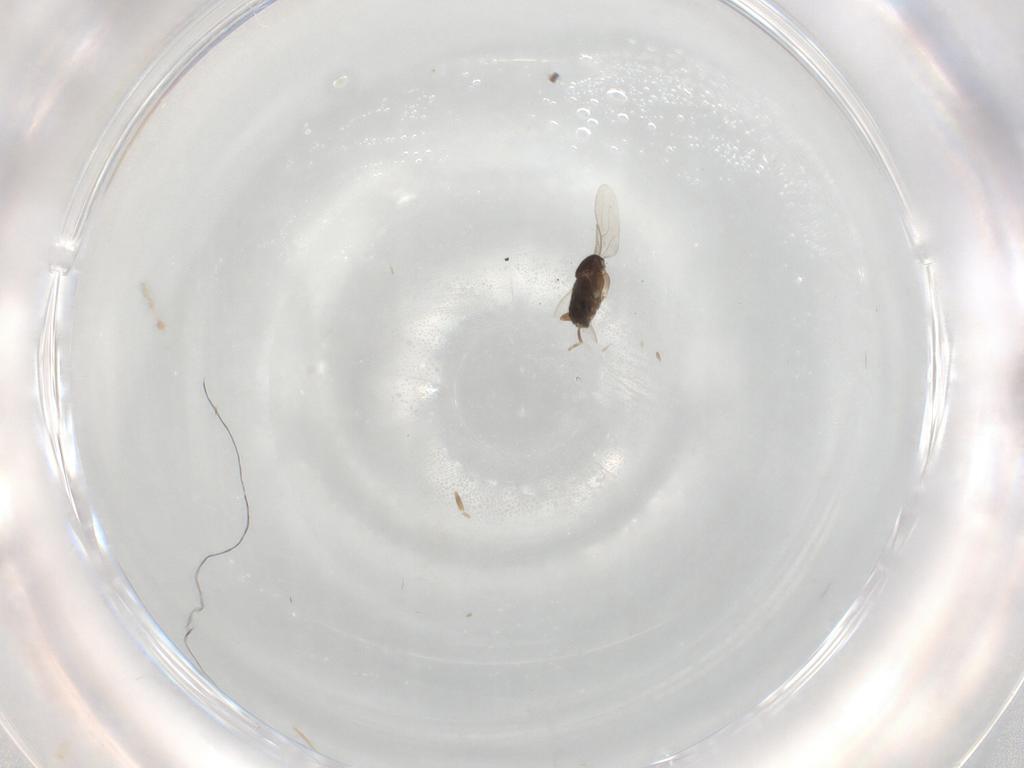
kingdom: Animalia
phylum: Arthropoda
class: Insecta
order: Diptera
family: Phoridae
